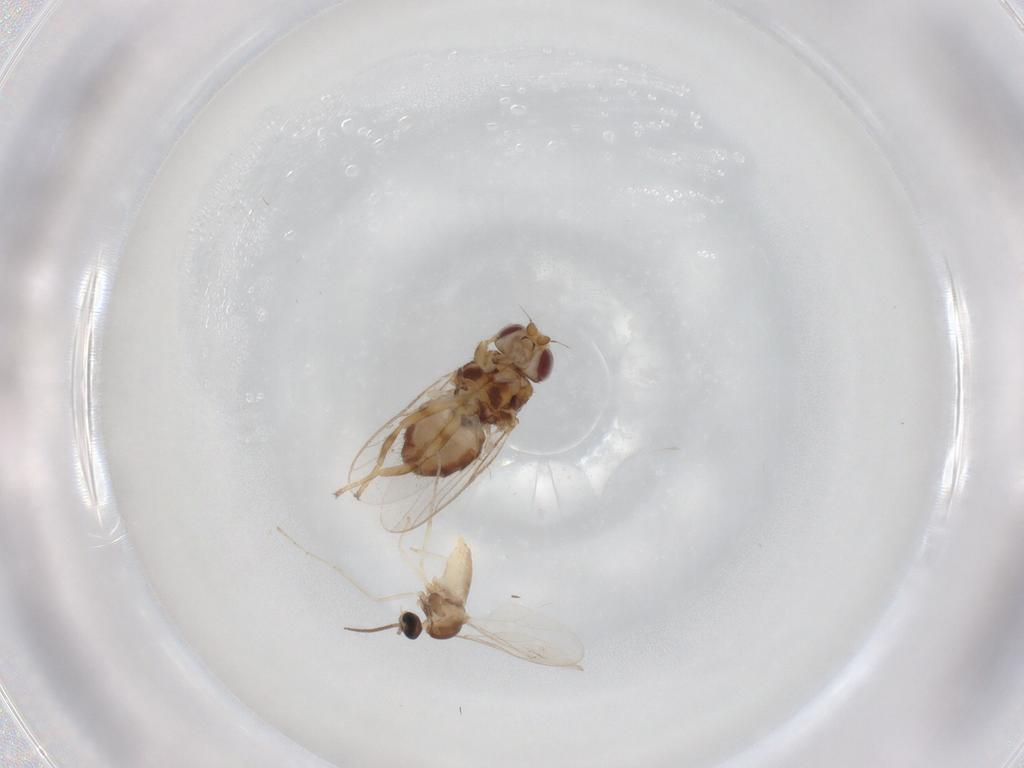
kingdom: Animalia
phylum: Arthropoda
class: Insecta
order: Diptera
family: Chloropidae
